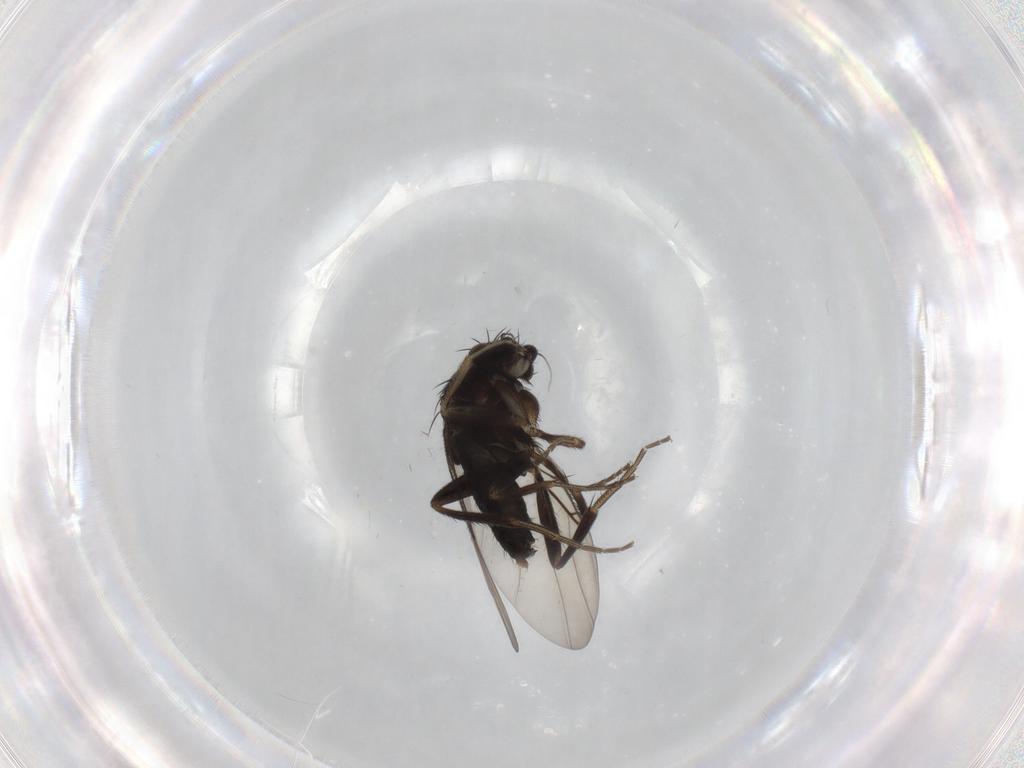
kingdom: Animalia
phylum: Arthropoda
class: Insecta
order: Diptera
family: Phoridae
